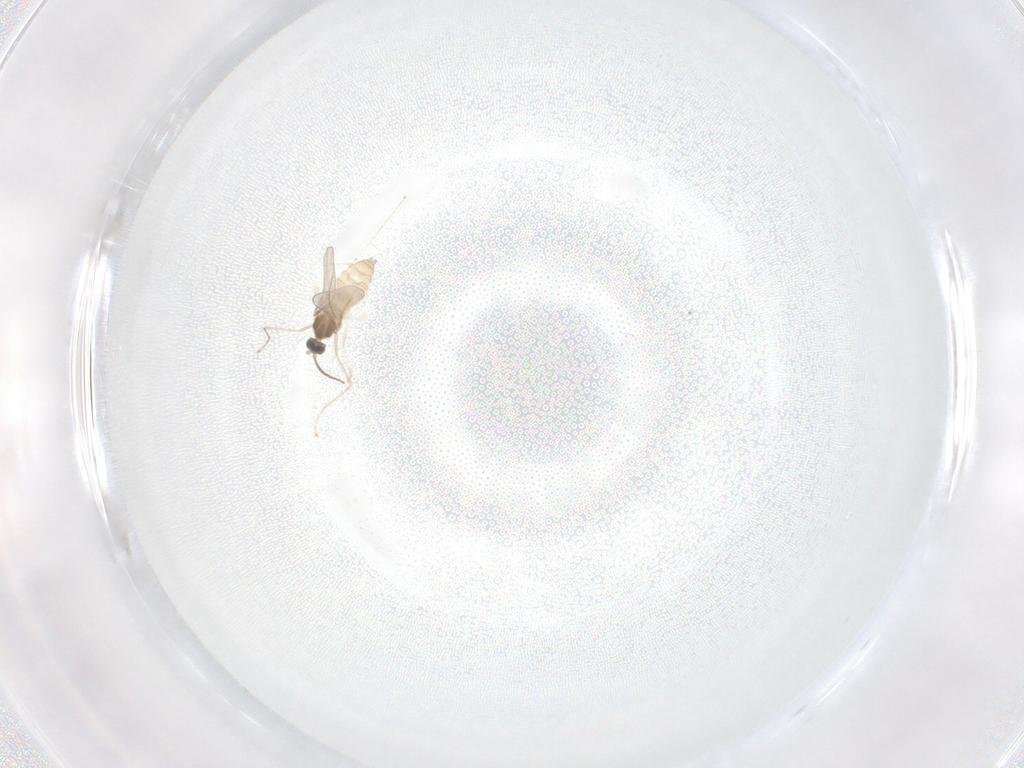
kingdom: Animalia
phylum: Arthropoda
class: Insecta
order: Diptera
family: Cecidomyiidae
